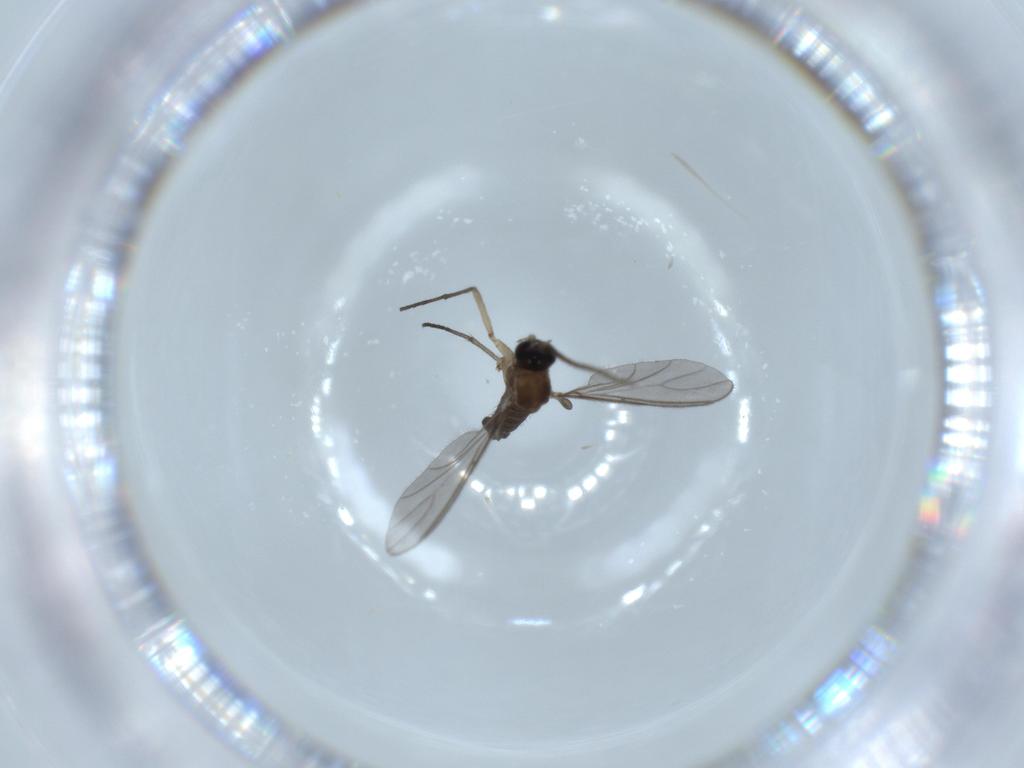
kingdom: Animalia
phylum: Arthropoda
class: Insecta
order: Diptera
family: Sciaridae
